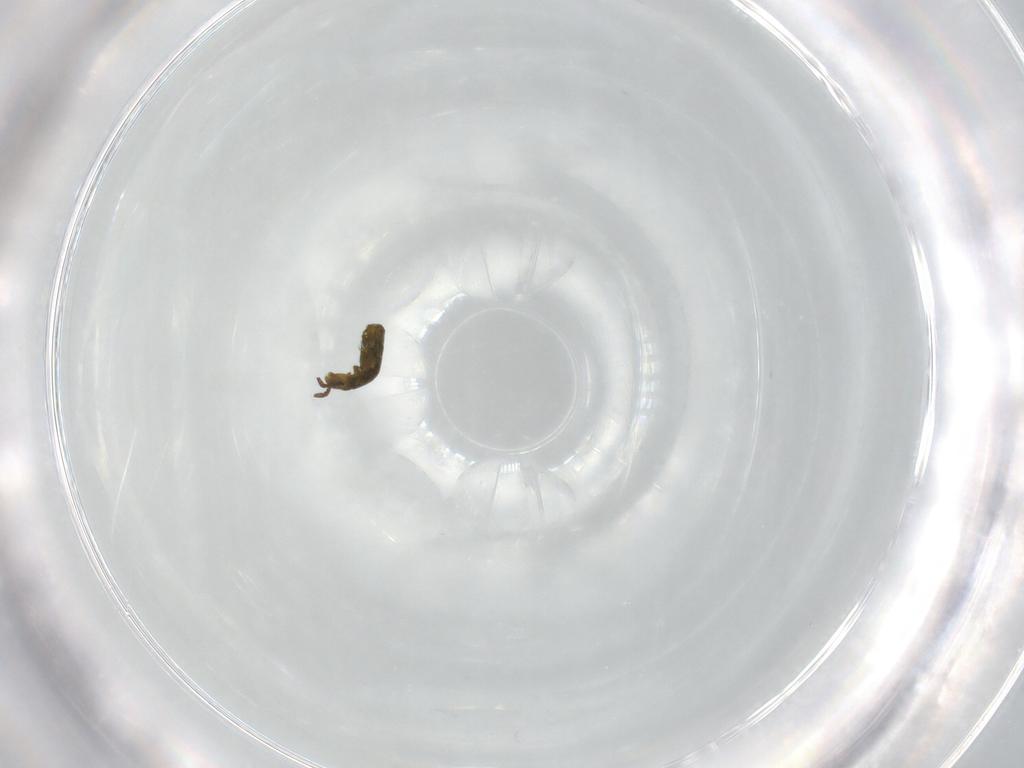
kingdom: Animalia
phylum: Arthropoda
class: Collembola
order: Entomobryomorpha
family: Isotomidae
